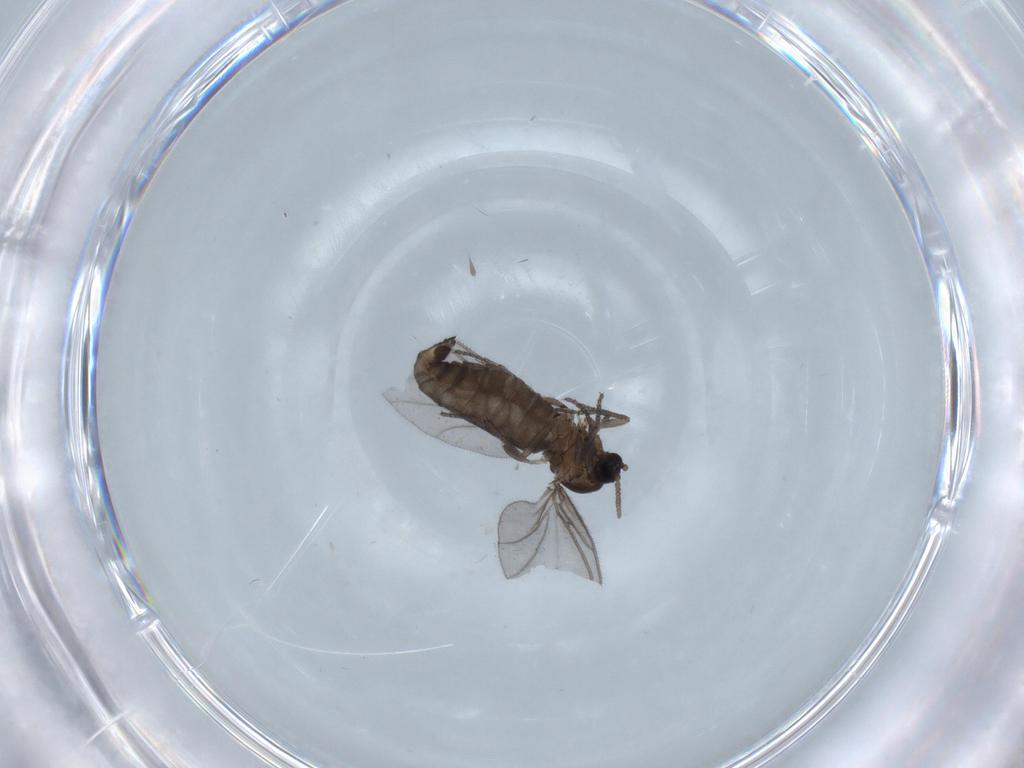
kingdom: Animalia
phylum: Arthropoda
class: Insecta
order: Diptera
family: Sciaridae
